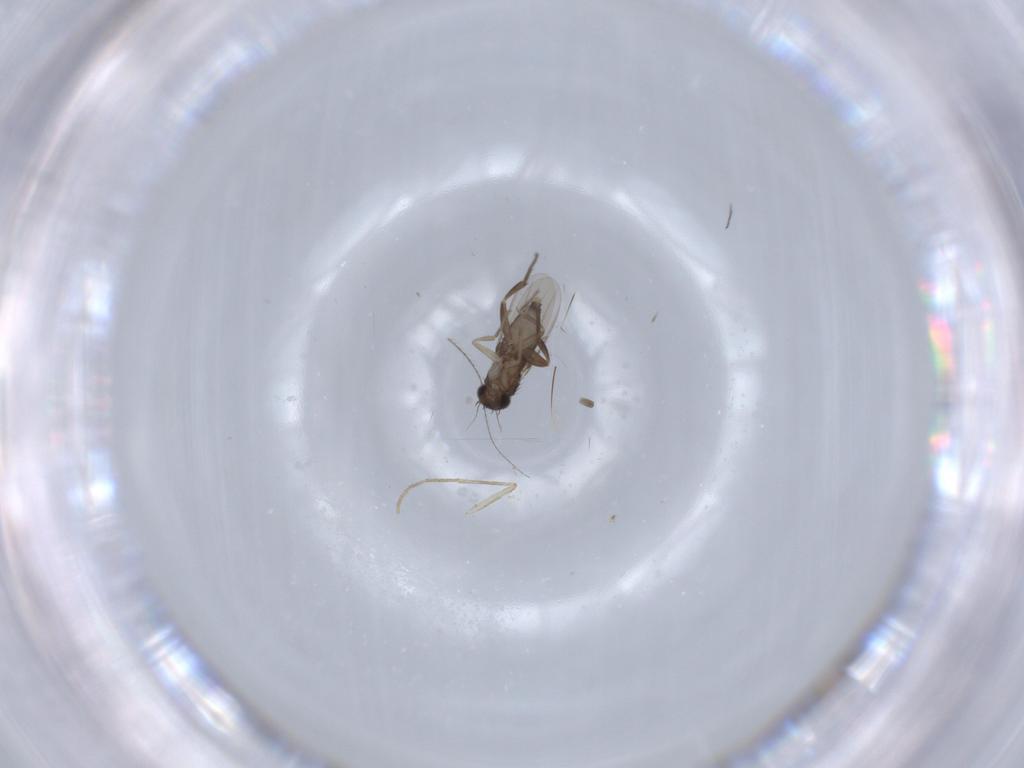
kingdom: Animalia
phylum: Arthropoda
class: Insecta
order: Diptera
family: Phoridae
